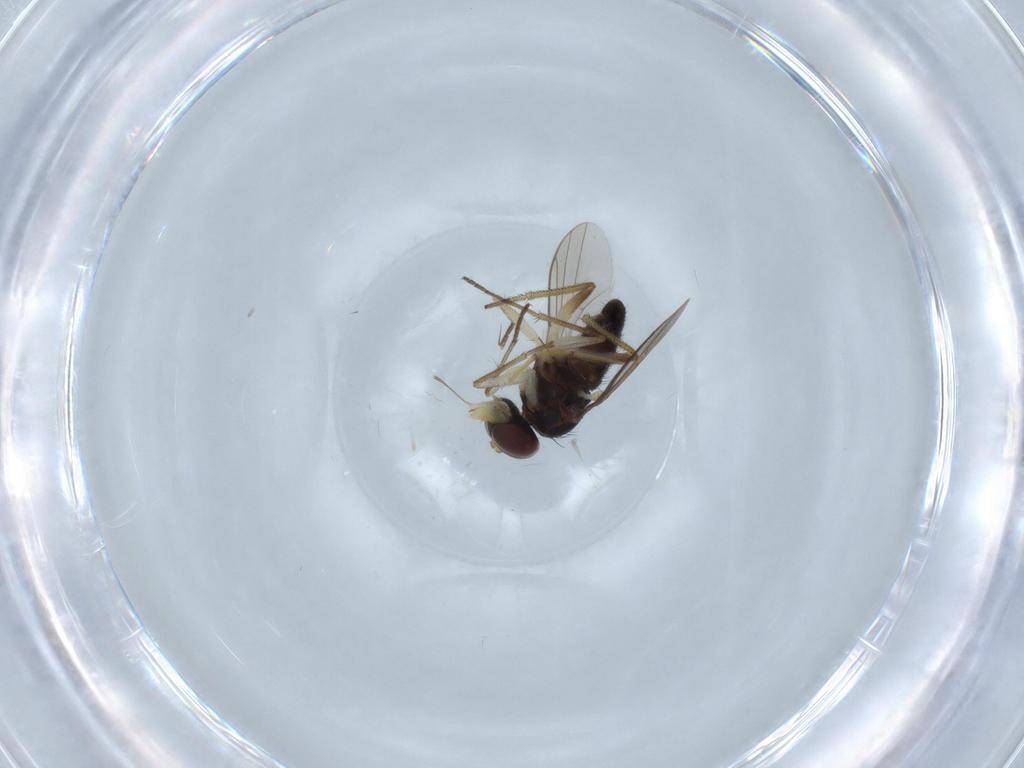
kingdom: Animalia
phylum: Arthropoda
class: Insecta
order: Diptera
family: Dolichopodidae
